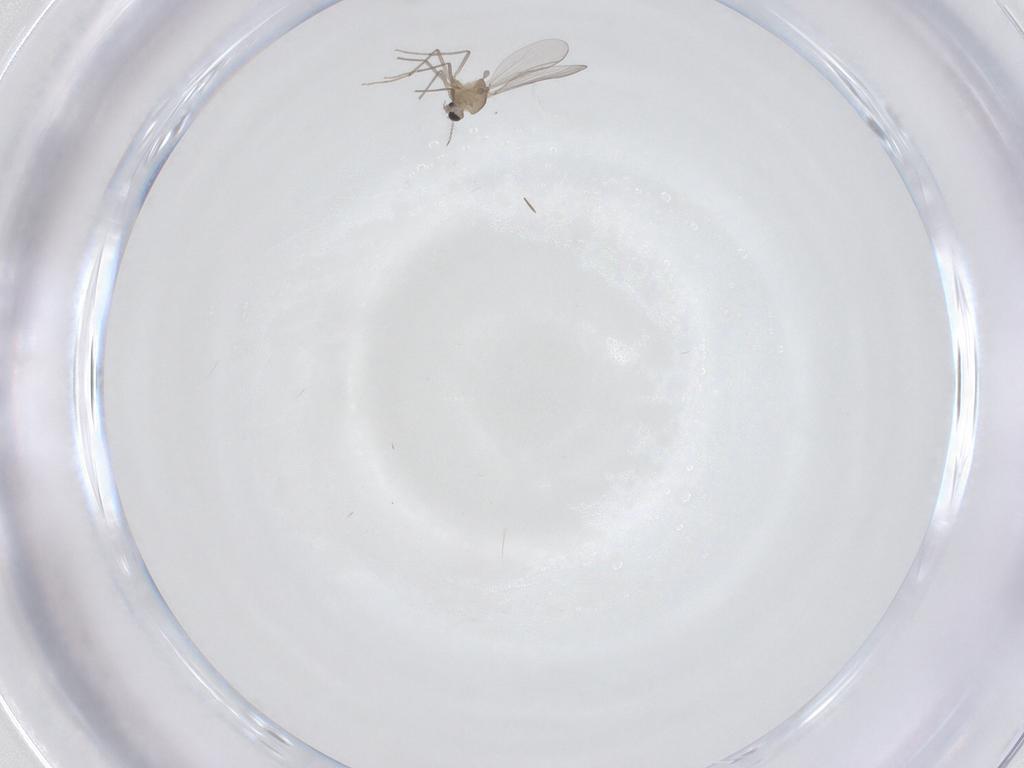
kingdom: Animalia
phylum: Arthropoda
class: Insecta
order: Diptera
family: Chironomidae
